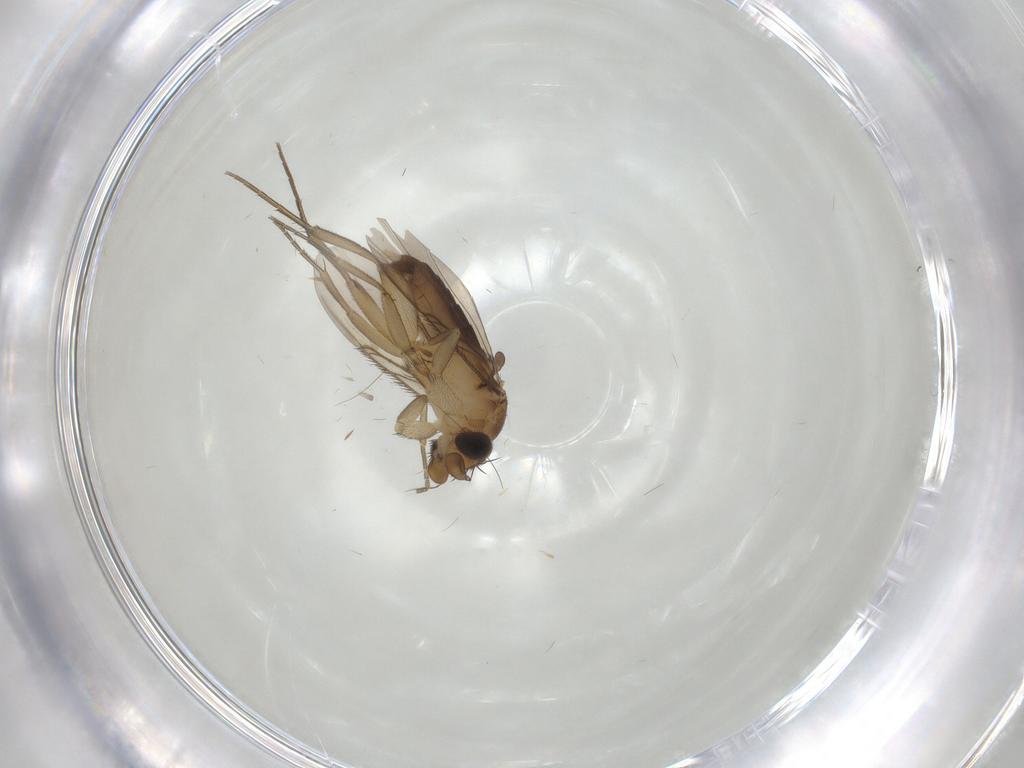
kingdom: Animalia
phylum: Arthropoda
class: Insecta
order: Diptera
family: Phoridae
